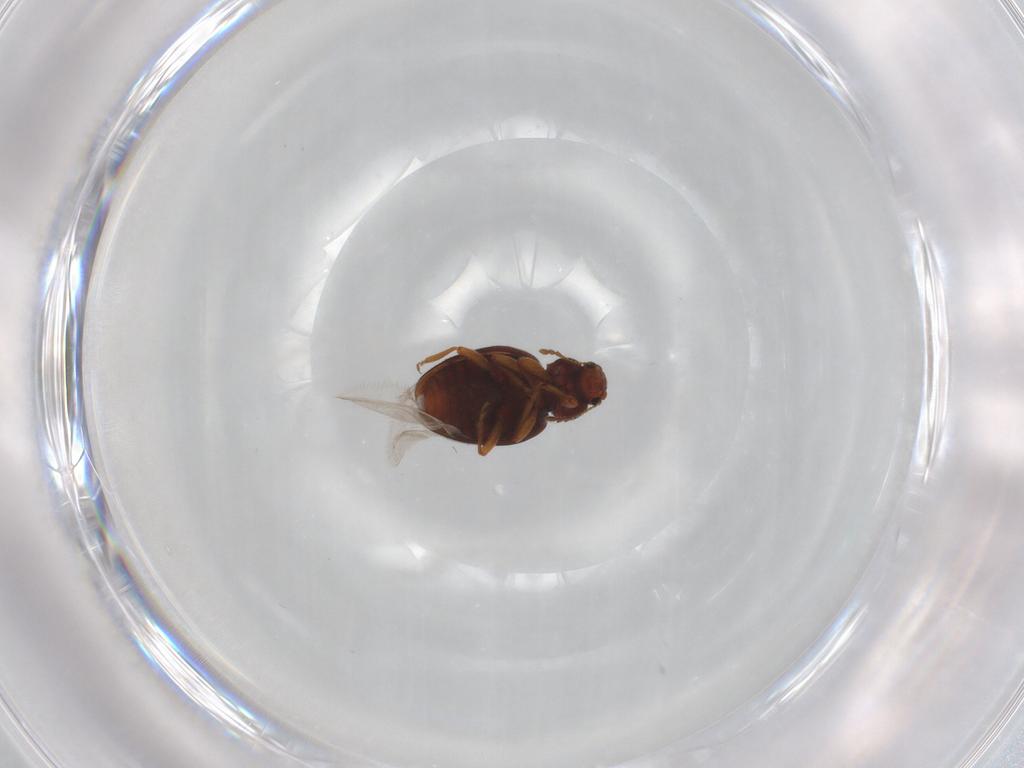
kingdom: Animalia
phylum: Arthropoda
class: Insecta
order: Coleoptera
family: Latridiidae
